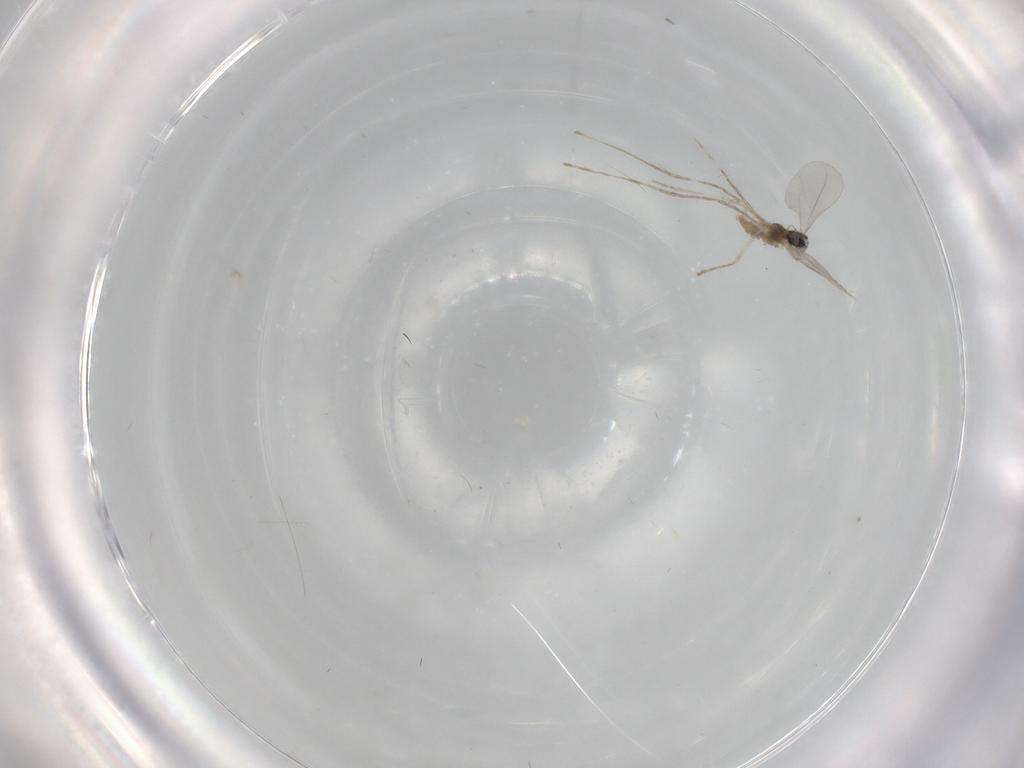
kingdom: Animalia
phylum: Arthropoda
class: Insecta
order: Diptera
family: Cecidomyiidae
